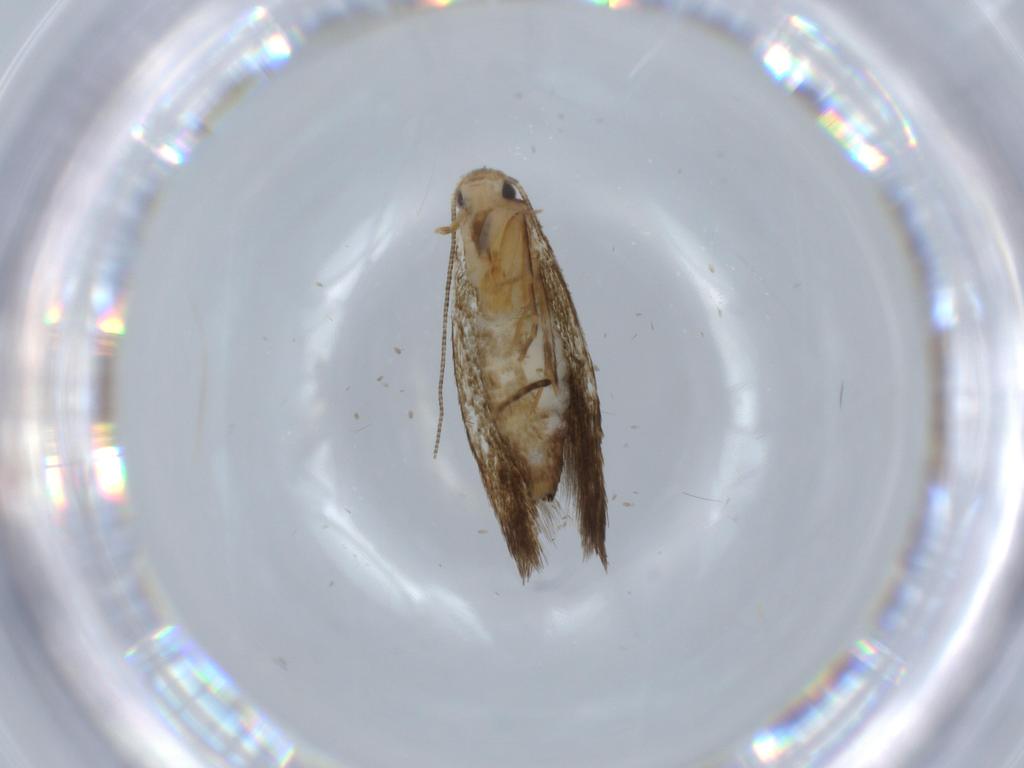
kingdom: Animalia
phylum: Arthropoda
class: Insecta
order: Lepidoptera
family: Tineidae
